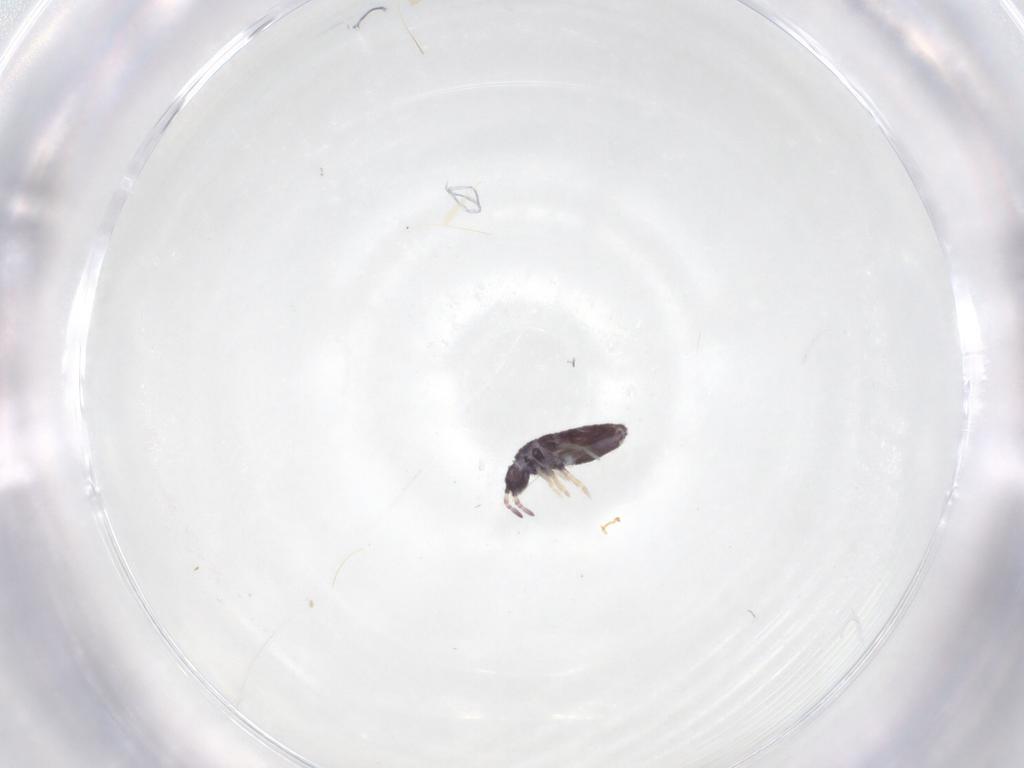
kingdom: Animalia
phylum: Arthropoda
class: Collembola
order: Entomobryomorpha
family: Entomobryidae
